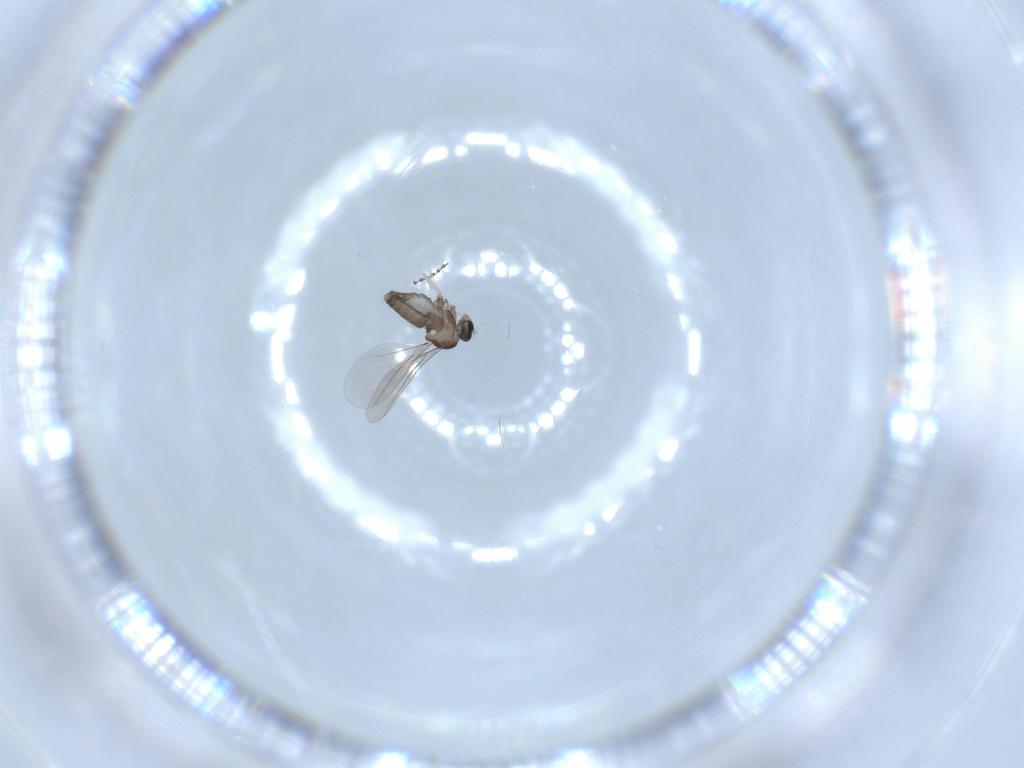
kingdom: Animalia
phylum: Arthropoda
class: Insecta
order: Diptera
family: Cecidomyiidae
